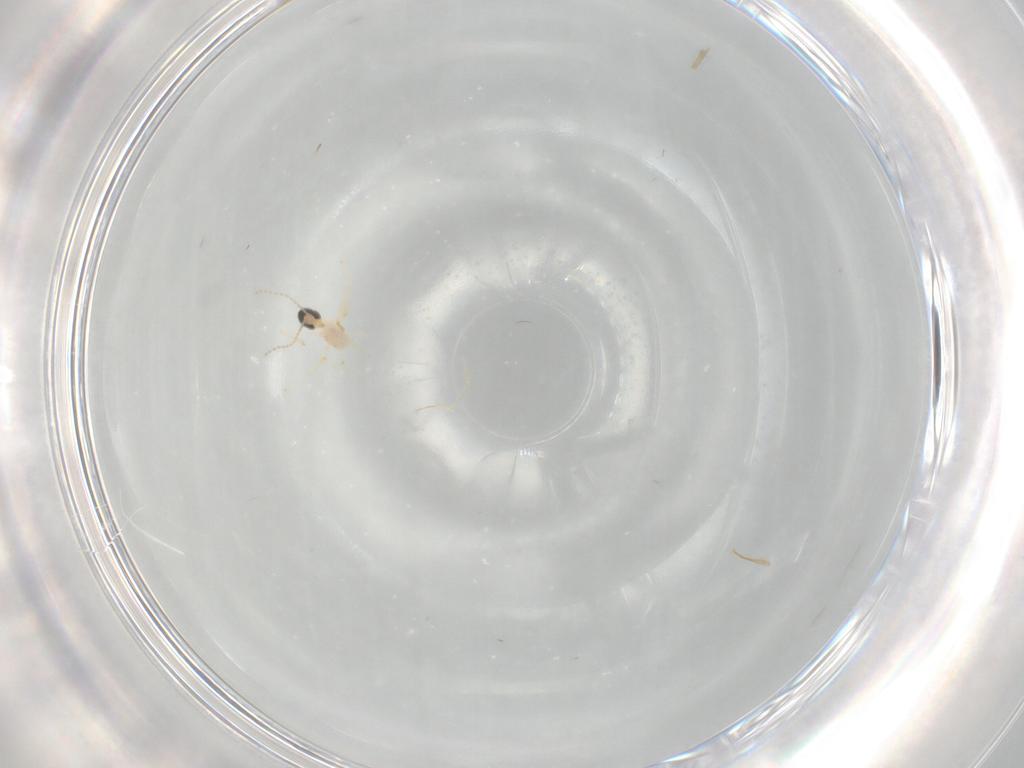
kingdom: Animalia
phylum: Arthropoda
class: Insecta
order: Diptera
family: Cecidomyiidae
